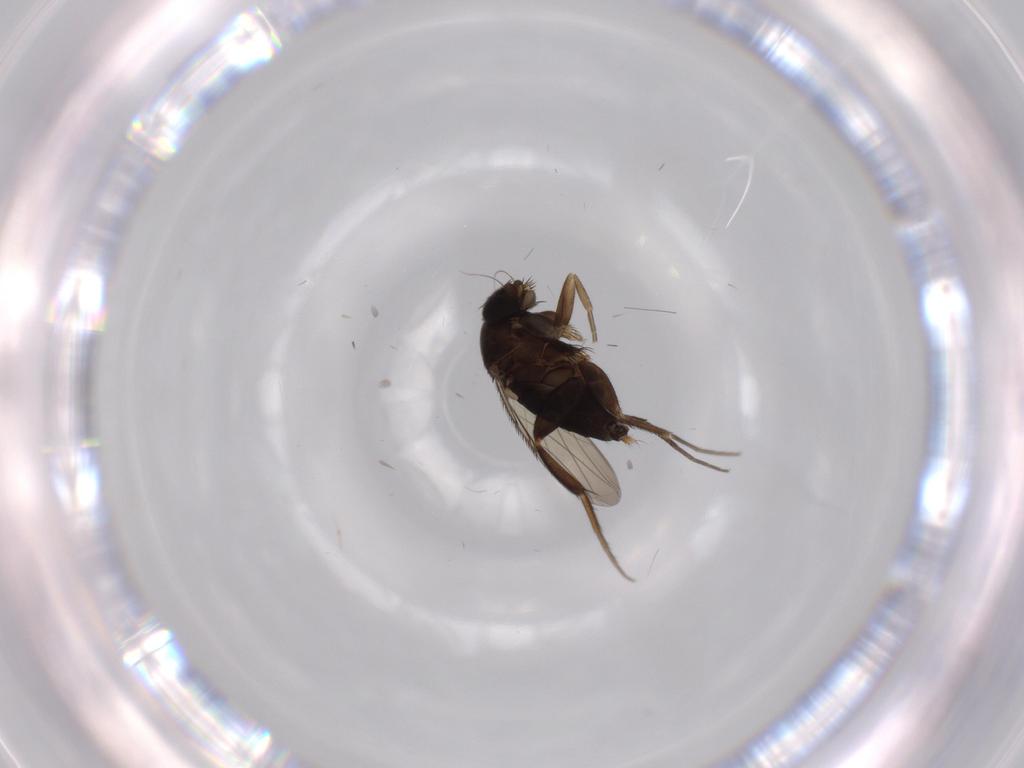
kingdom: Animalia
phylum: Arthropoda
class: Insecta
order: Diptera
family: Phoridae
